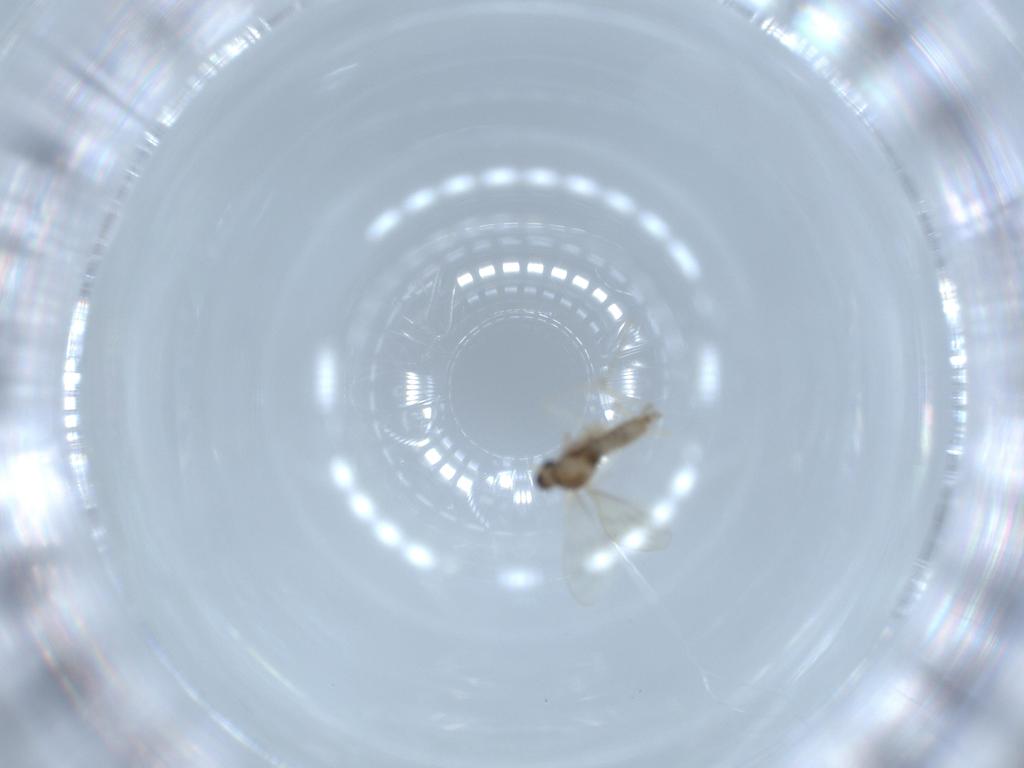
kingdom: Animalia
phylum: Arthropoda
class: Insecta
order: Diptera
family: Cecidomyiidae
